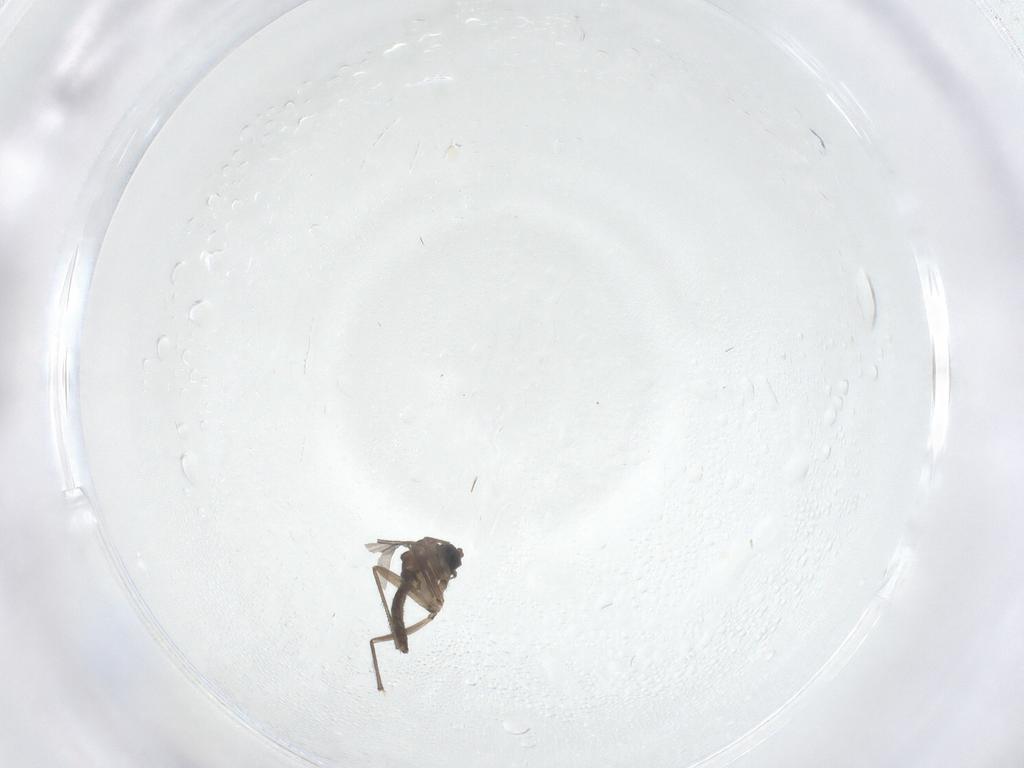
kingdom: Animalia
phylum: Arthropoda
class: Insecta
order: Diptera
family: Sciaridae
